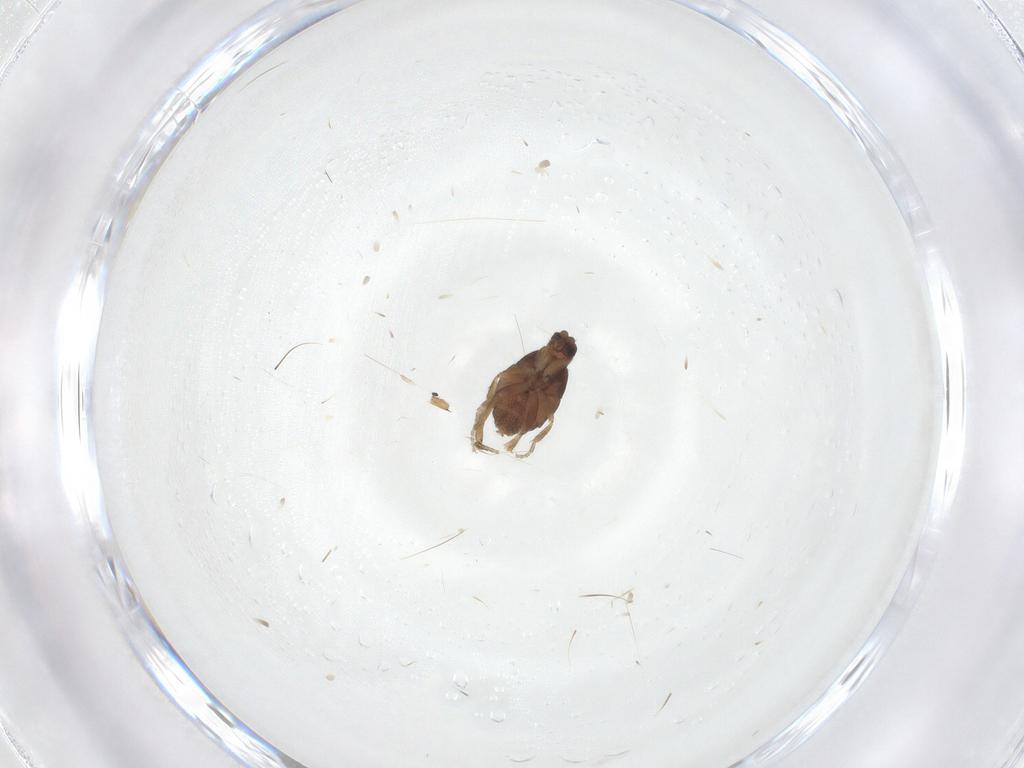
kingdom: Animalia
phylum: Arthropoda
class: Insecta
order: Diptera
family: Phoridae
